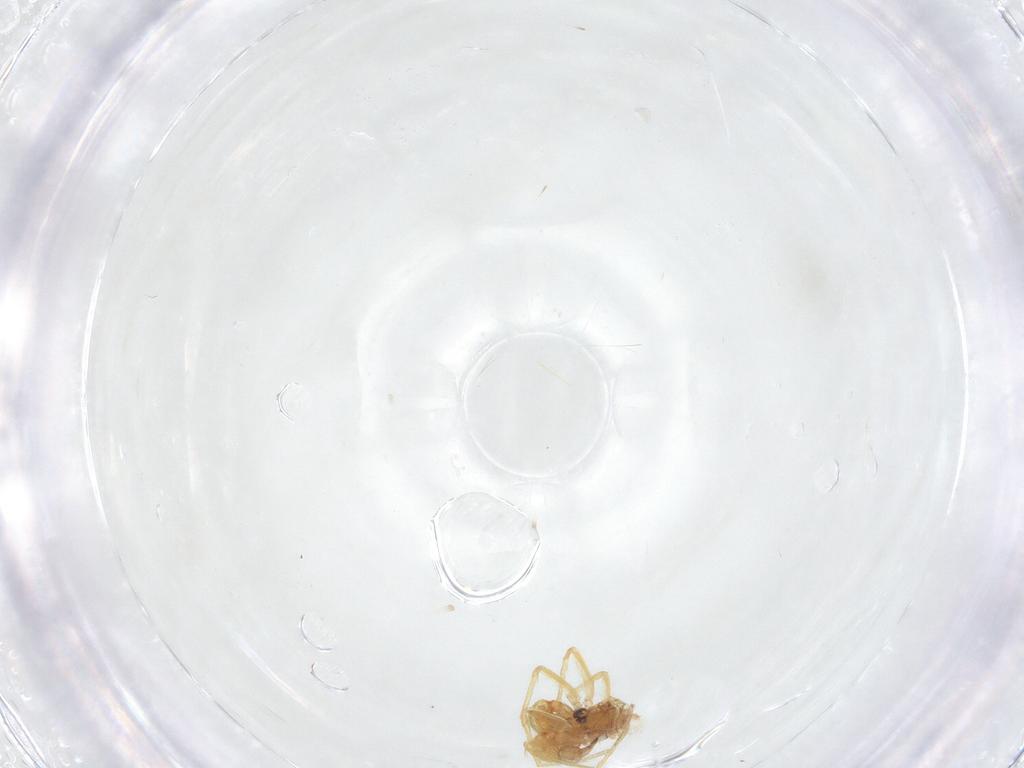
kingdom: Animalia
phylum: Arthropoda
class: Arachnida
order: Araneae
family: Dictynidae
